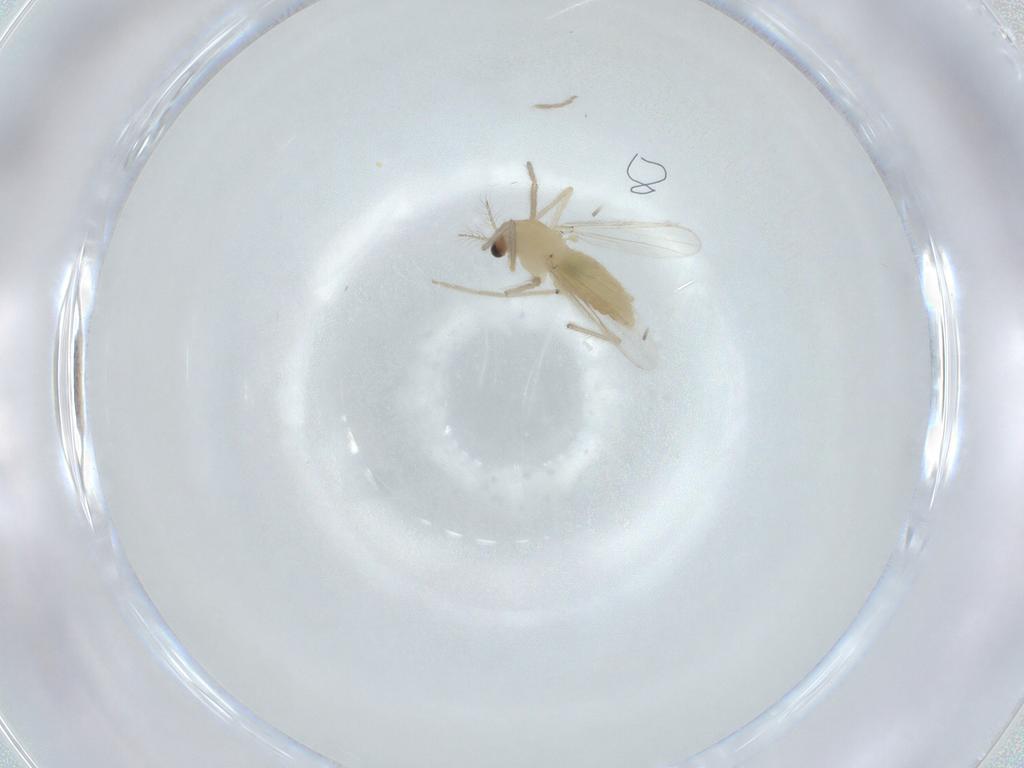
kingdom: Animalia
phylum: Arthropoda
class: Insecta
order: Diptera
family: Chironomidae
